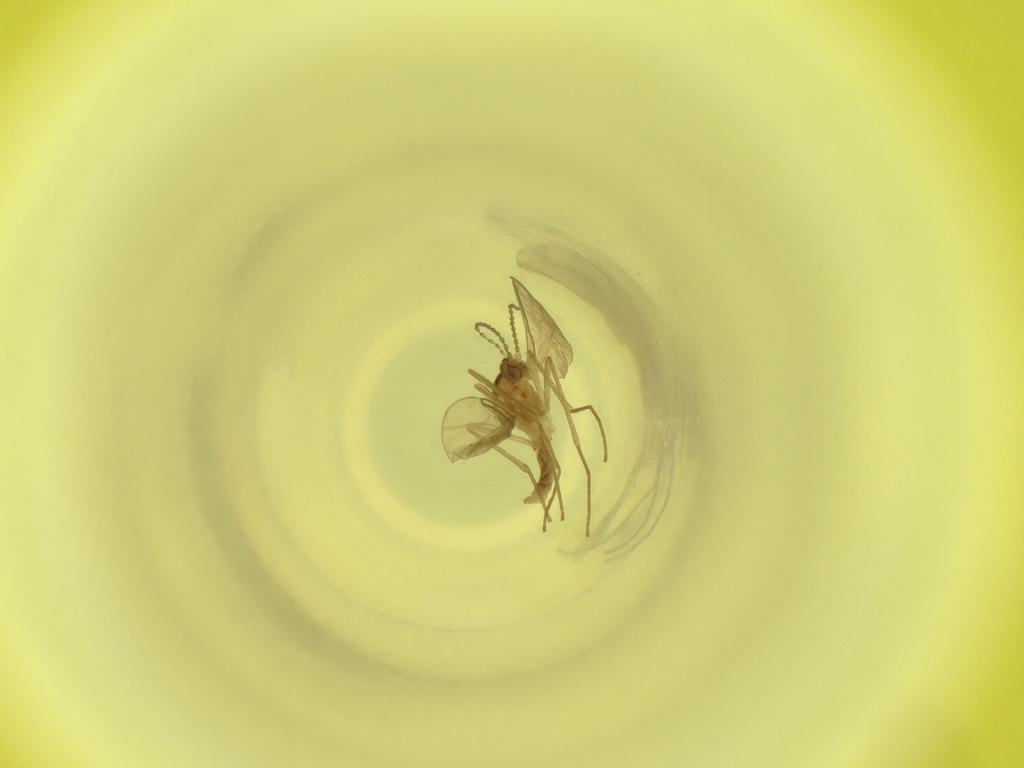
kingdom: Animalia
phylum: Arthropoda
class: Insecta
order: Diptera
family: Cecidomyiidae
